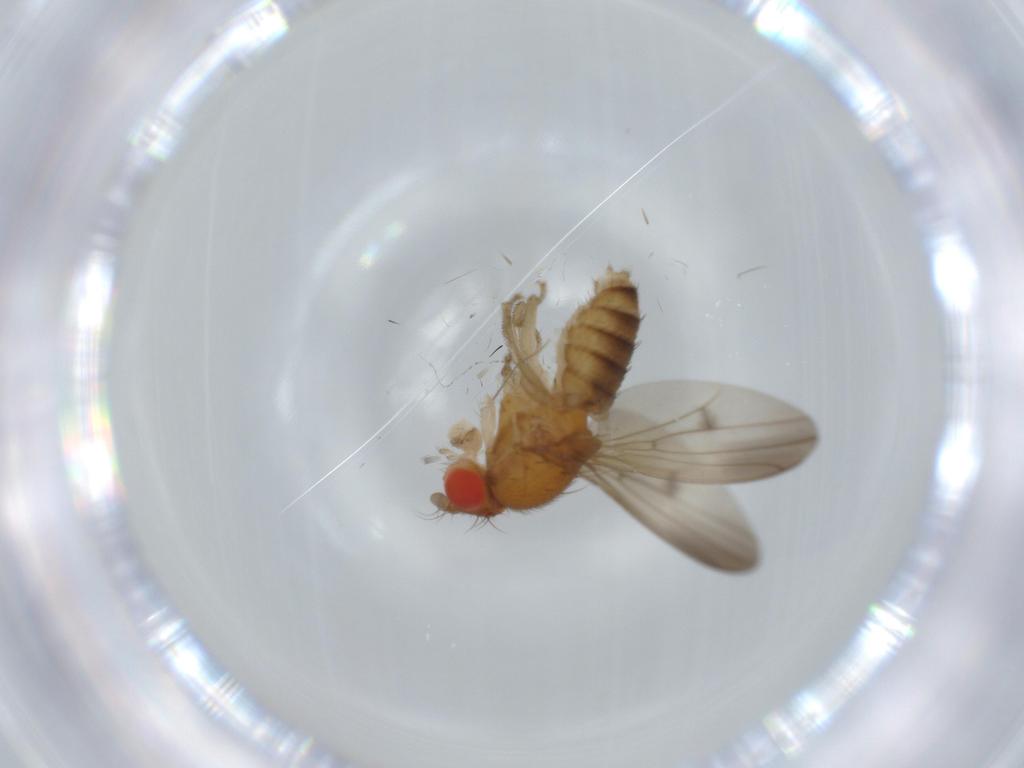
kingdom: Animalia
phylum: Arthropoda
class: Insecta
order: Diptera
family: Drosophilidae
